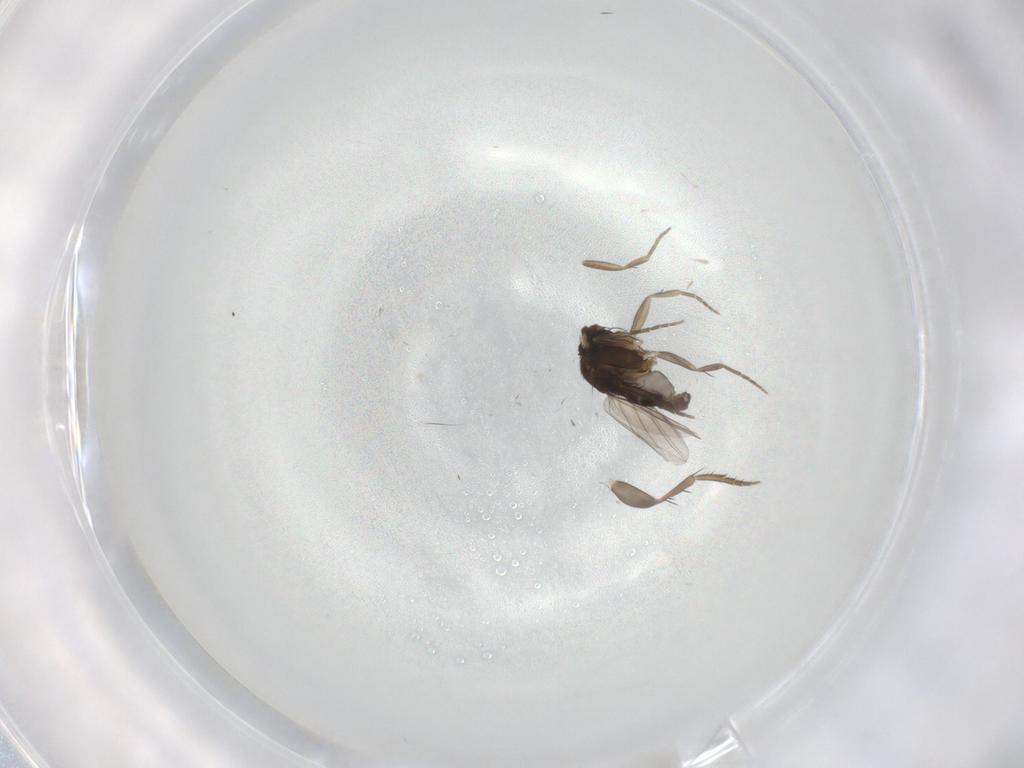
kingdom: Animalia
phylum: Arthropoda
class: Insecta
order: Diptera
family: Phoridae
